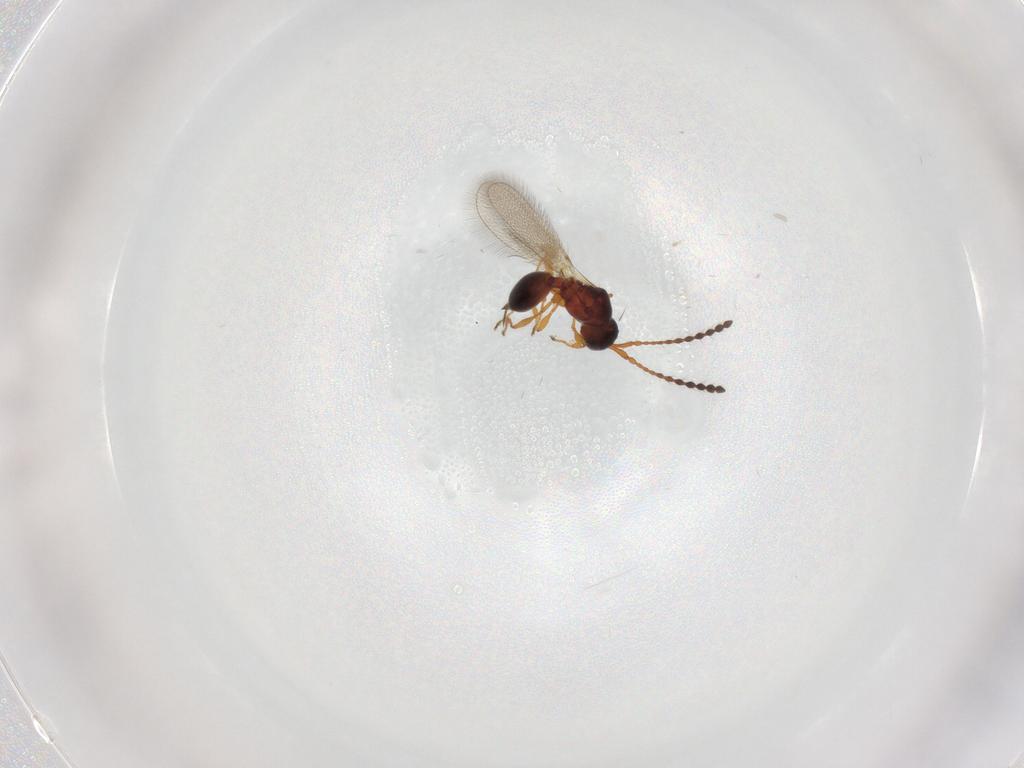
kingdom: Animalia
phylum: Arthropoda
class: Insecta
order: Hymenoptera
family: Diapriidae
